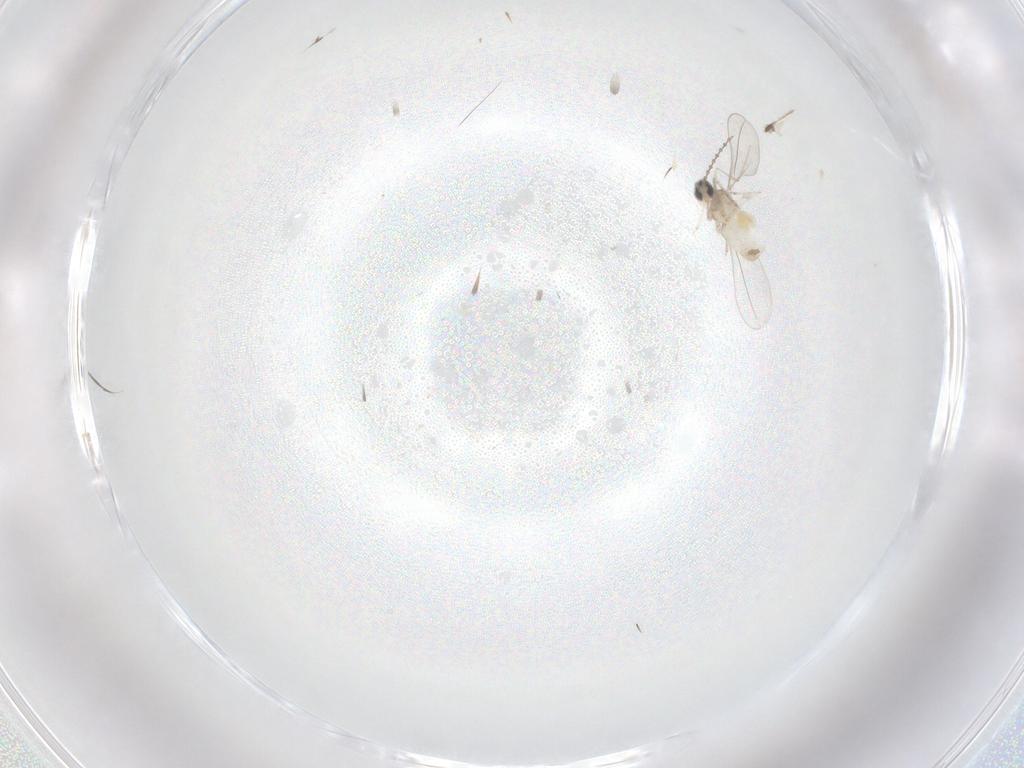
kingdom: Animalia
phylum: Arthropoda
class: Insecta
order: Diptera
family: Cecidomyiidae
